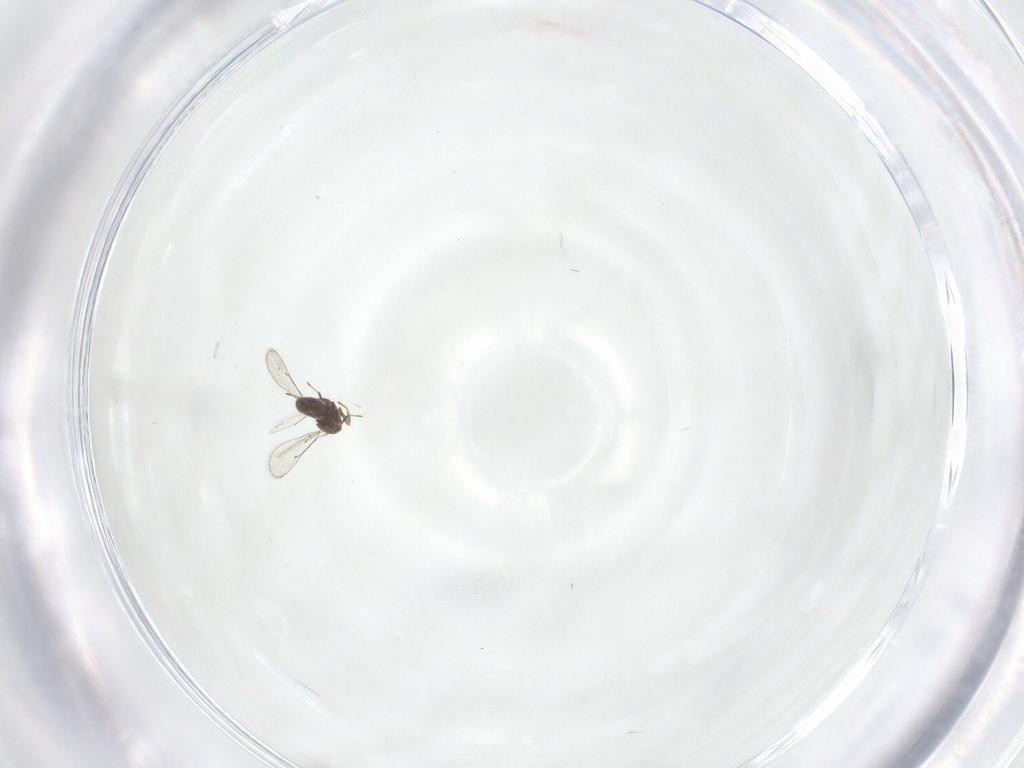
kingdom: Animalia
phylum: Arthropoda
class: Insecta
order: Hymenoptera
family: Eulophidae
